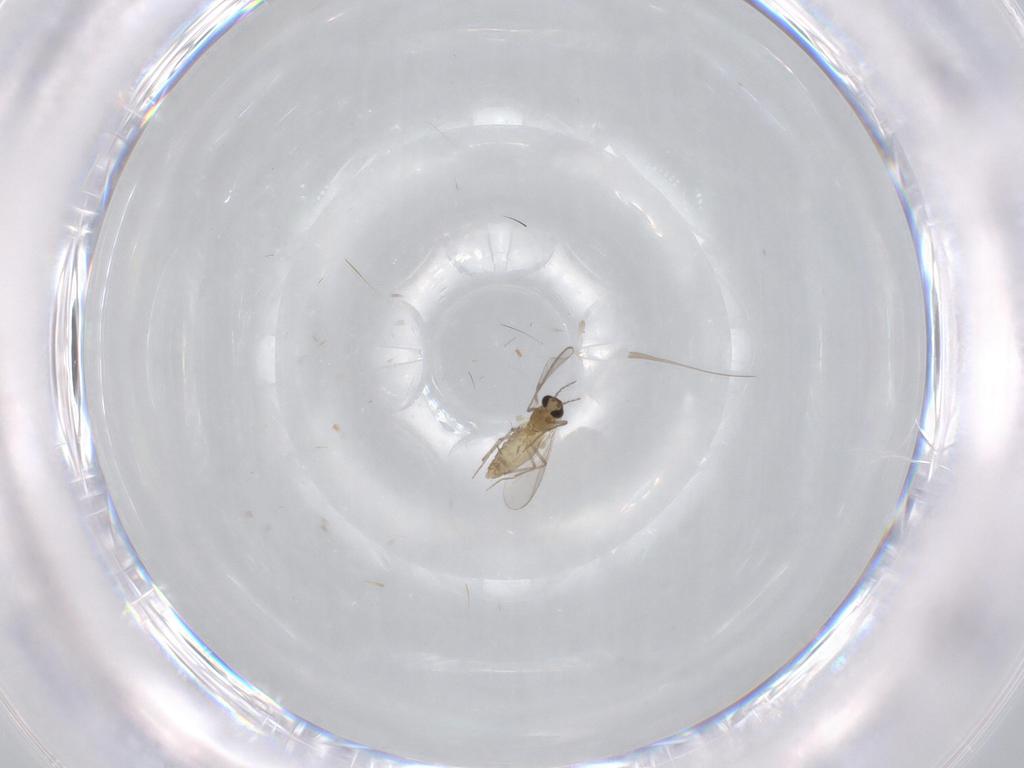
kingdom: Animalia
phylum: Arthropoda
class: Insecta
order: Diptera
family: Chironomidae
